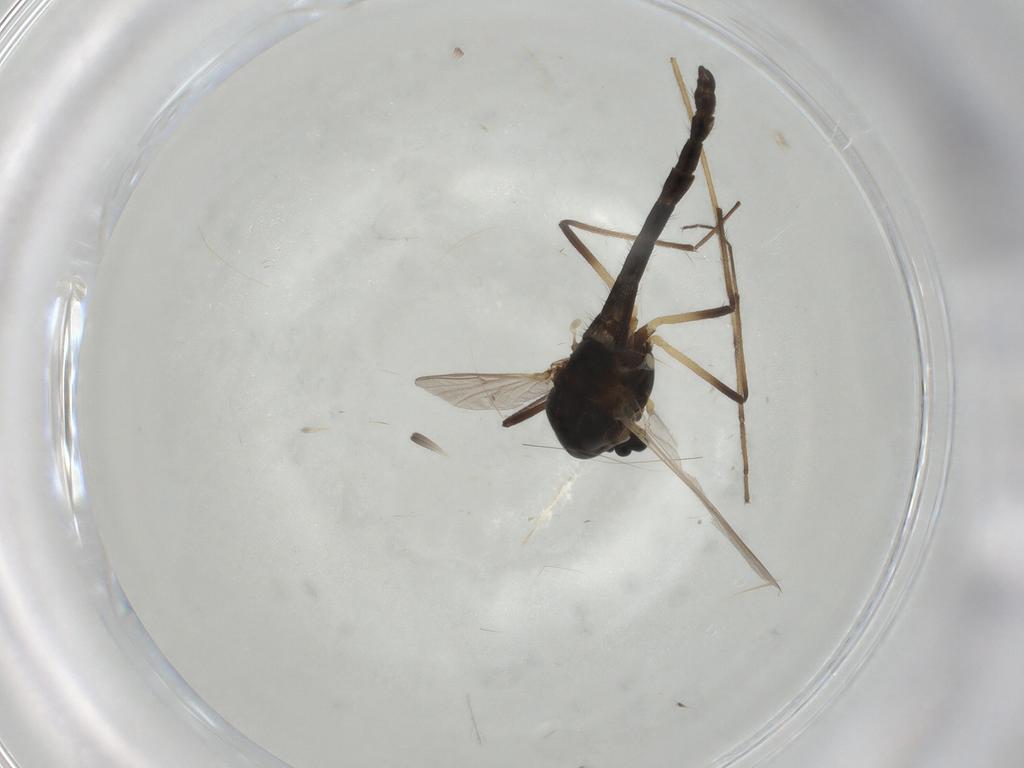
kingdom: Animalia
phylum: Arthropoda
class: Insecta
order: Diptera
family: Chironomidae
